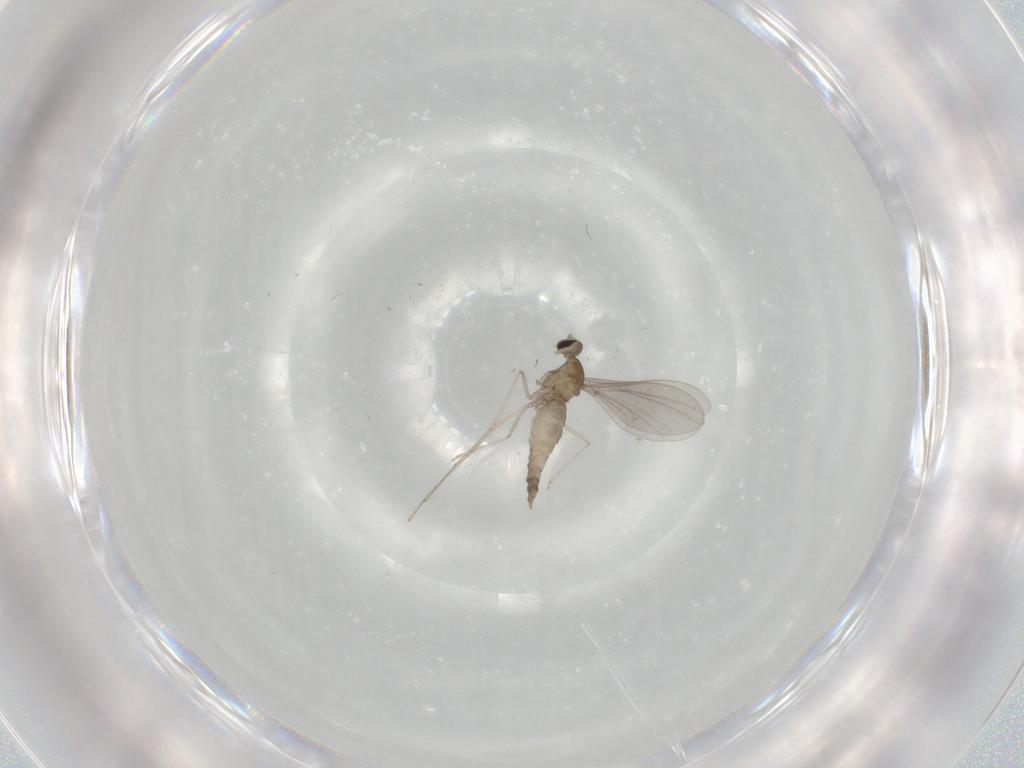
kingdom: Animalia
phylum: Arthropoda
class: Insecta
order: Diptera
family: Cecidomyiidae
